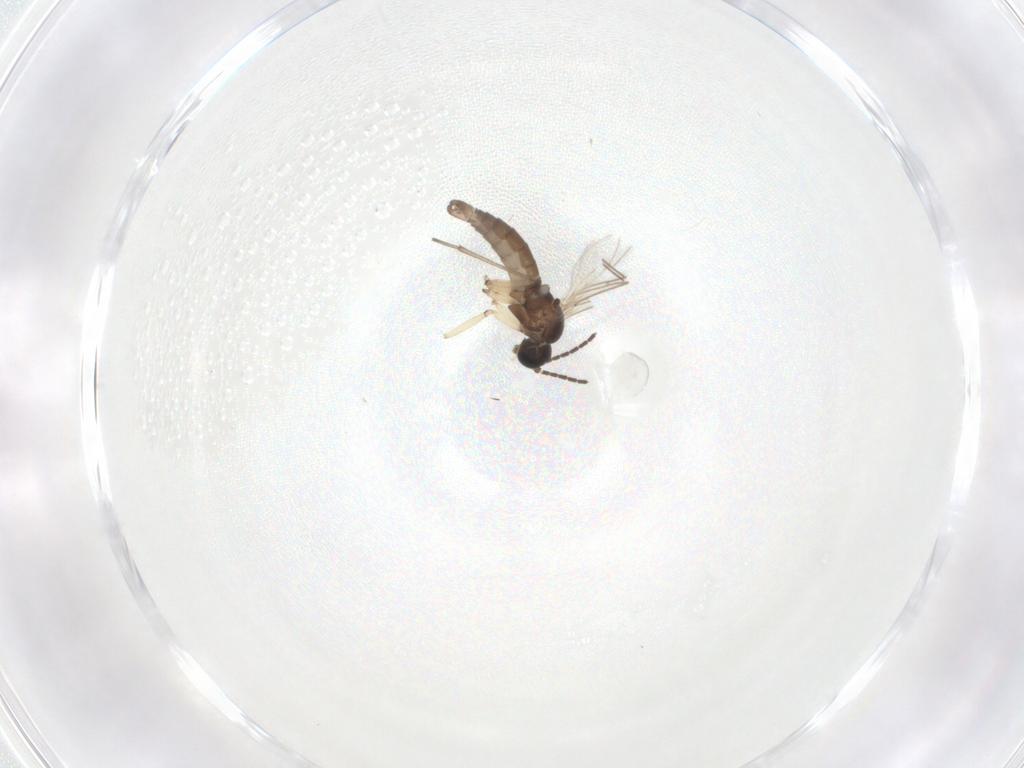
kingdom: Animalia
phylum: Arthropoda
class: Insecta
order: Diptera
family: Sciaridae
